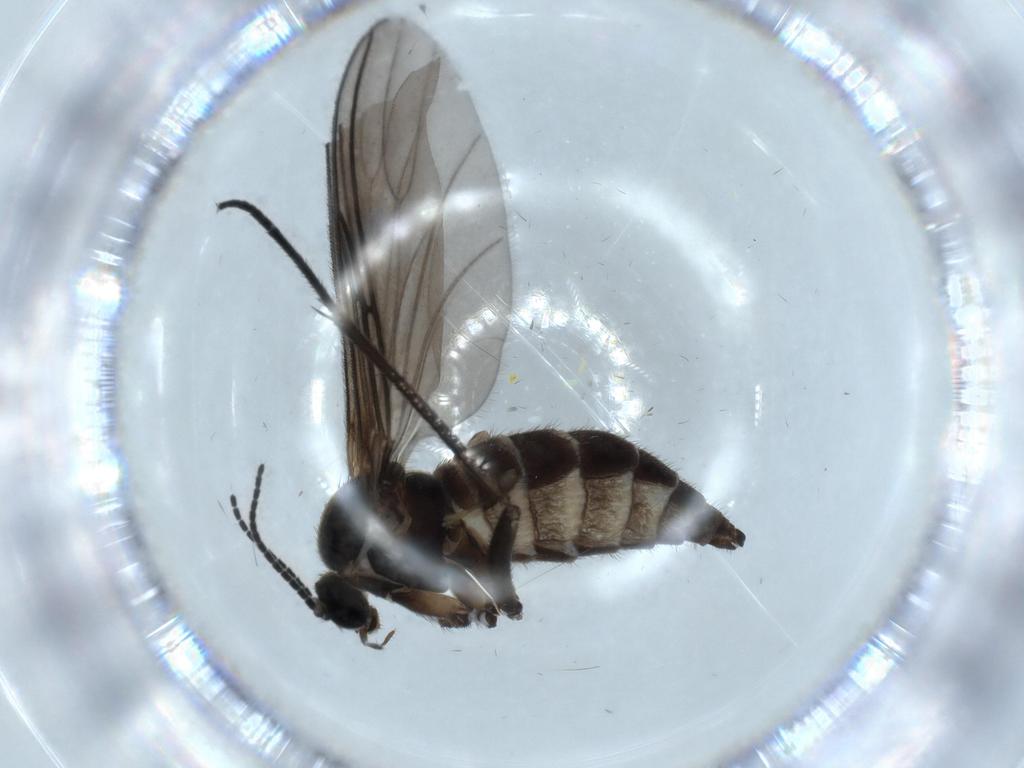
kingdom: Animalia
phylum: Arthropoda
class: Insecta
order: Diptera
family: Sciaridae
